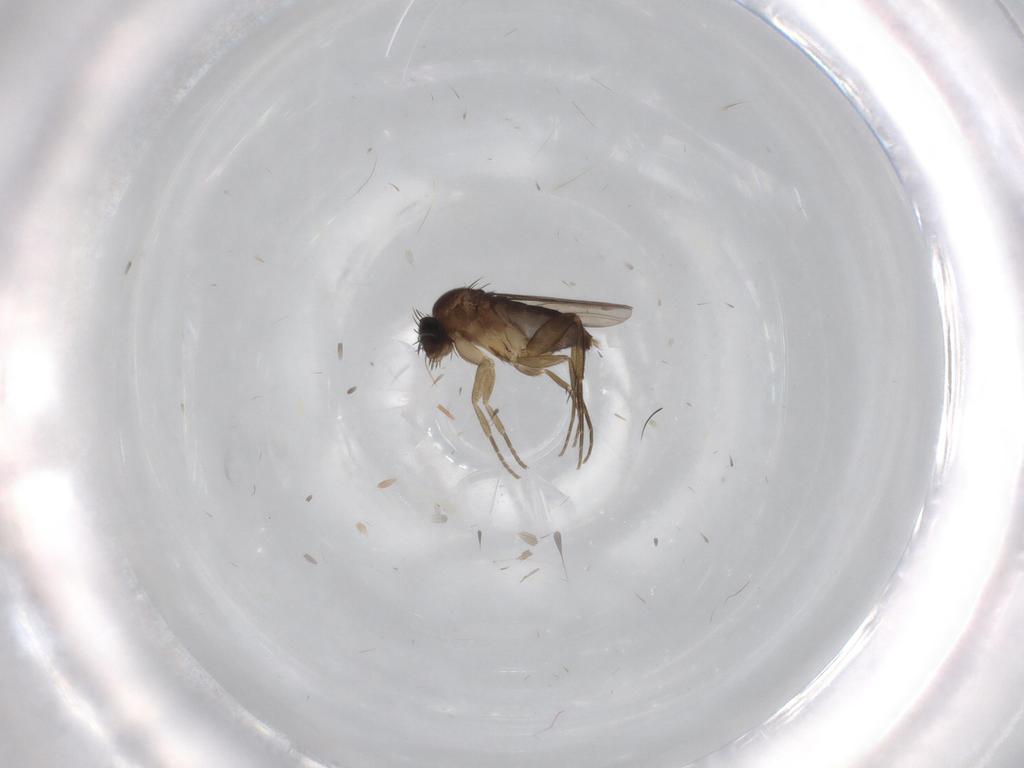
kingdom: Animalia
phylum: Arthropoda
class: Insecta
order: Diptera
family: Phoridae
